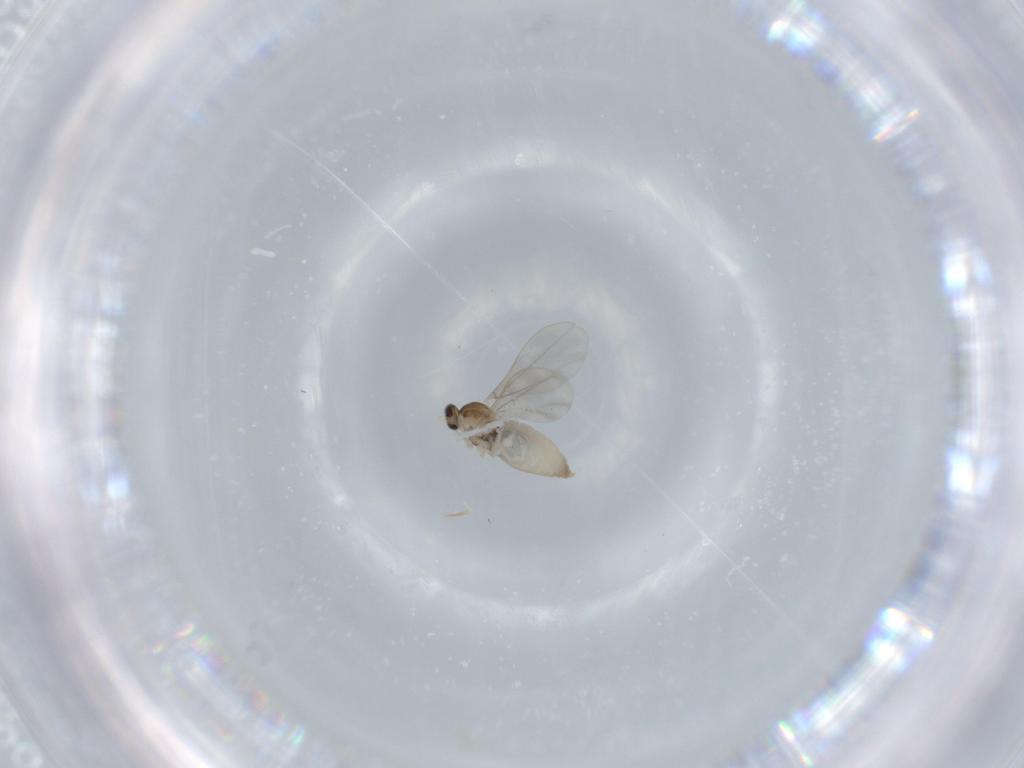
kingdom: Animalia
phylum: Arthropoda
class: Insecta
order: Diptera
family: Cecidomyiidae
